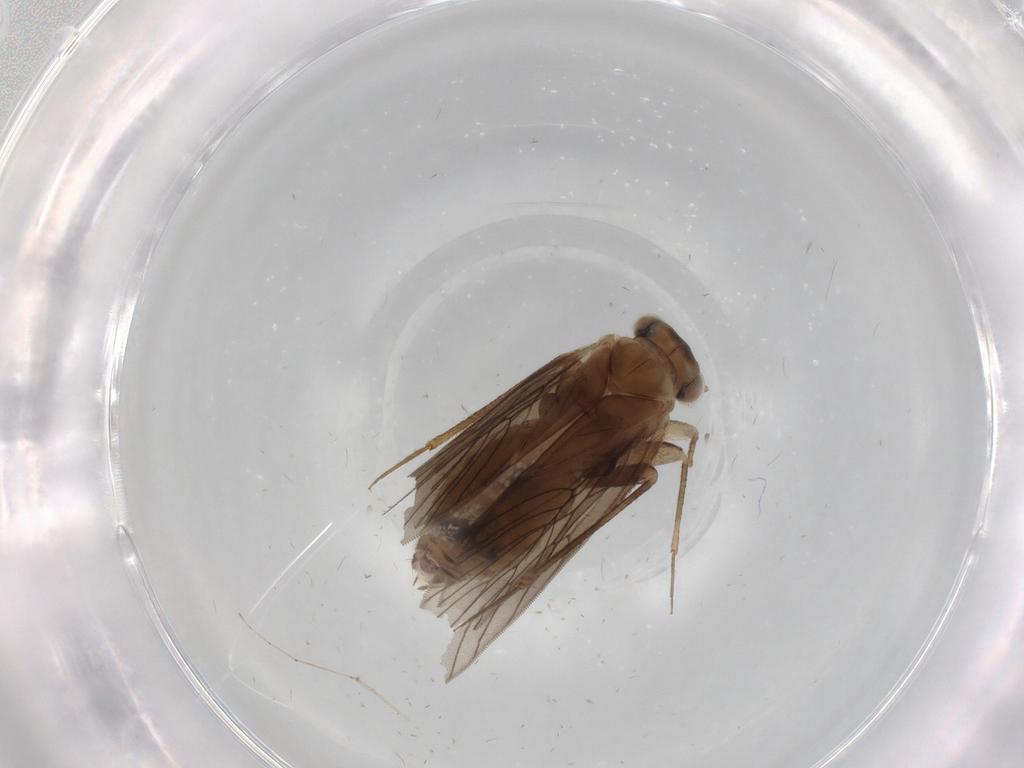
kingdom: Animalia
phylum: Arthropoda
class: Insecta
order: Psocodea
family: Lepidopsocidae
